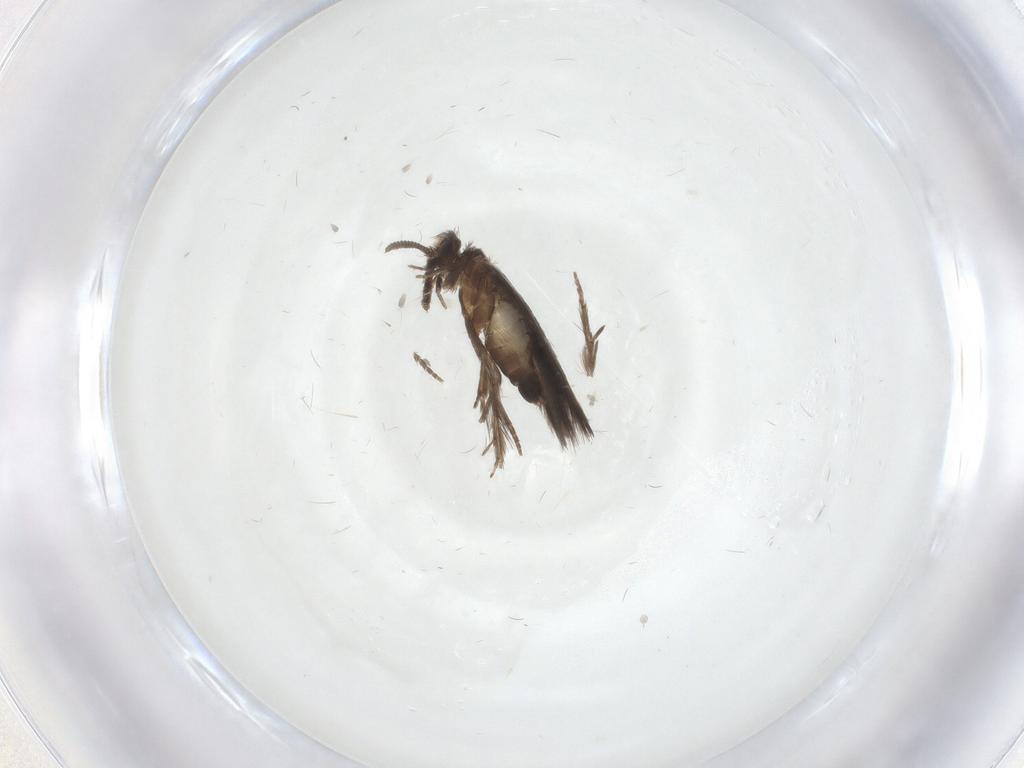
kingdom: Animalia
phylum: Arthropoda
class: Insecta
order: Trichoptera
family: Hydroptilidae
